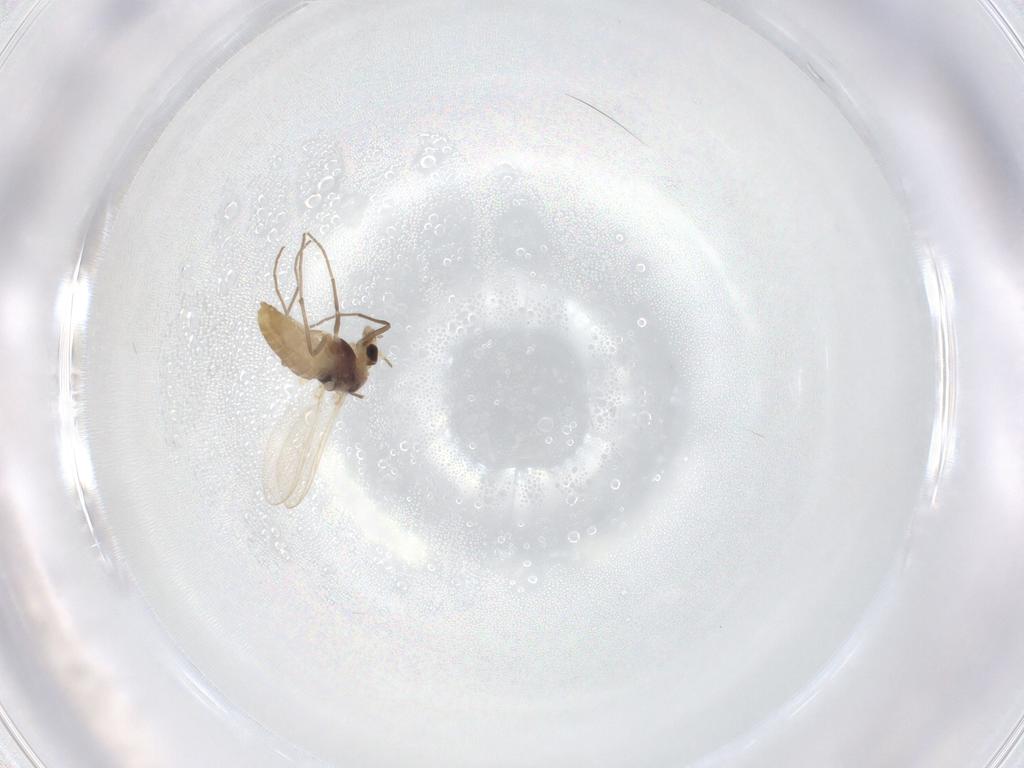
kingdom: Animalia
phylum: Arthropoda
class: Insecta
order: Diptera
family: Chironomidae
